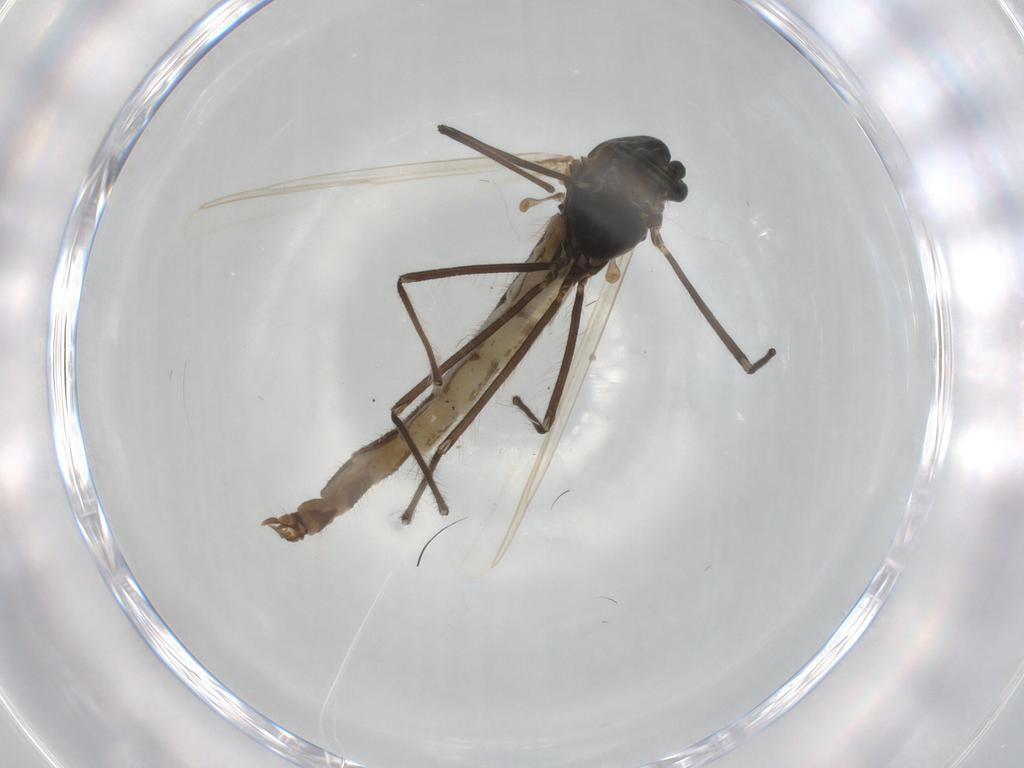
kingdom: Animalia
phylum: Arthropoda
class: Insecta
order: Diptera
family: Chironomidae
